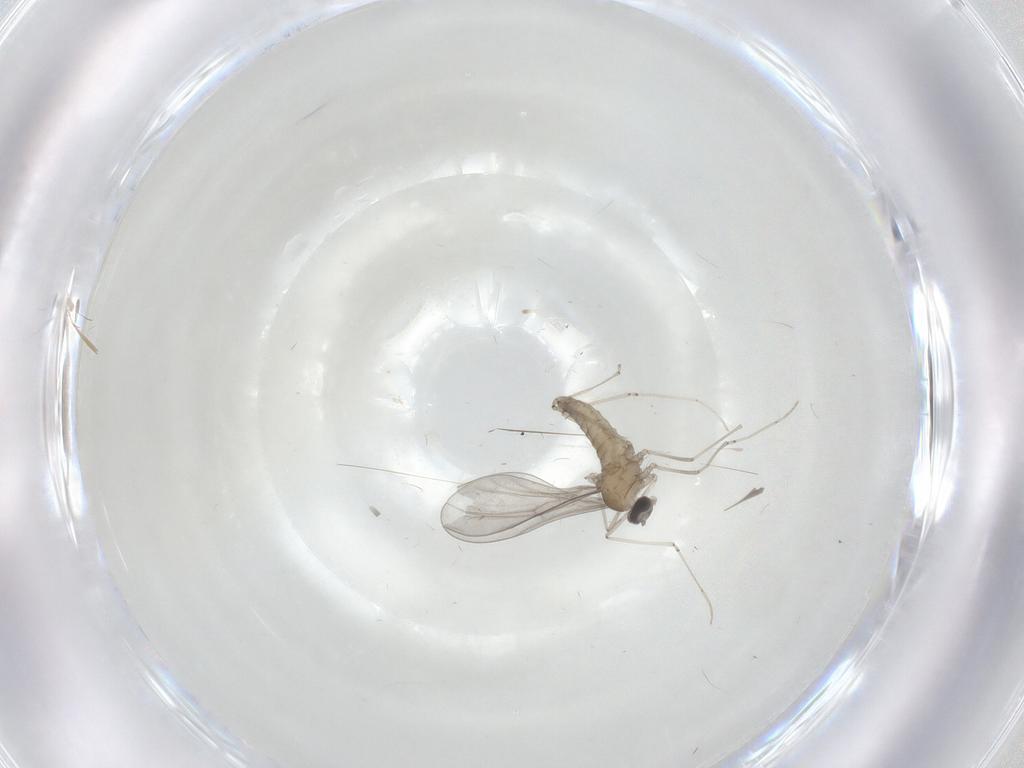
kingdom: Animalia
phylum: Arthropoda
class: Insecta
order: Diptera
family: Cecidomyiidae
